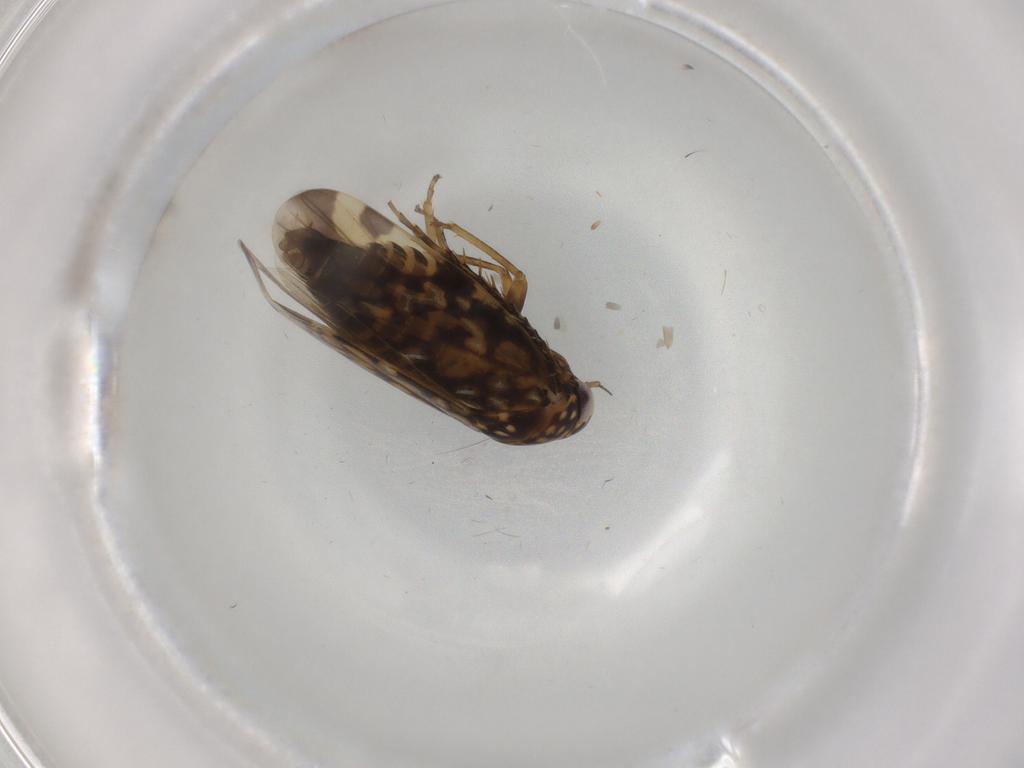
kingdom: Animalia
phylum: Arthropoda
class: Insecta
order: Hemiptera
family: Cicadellidae
